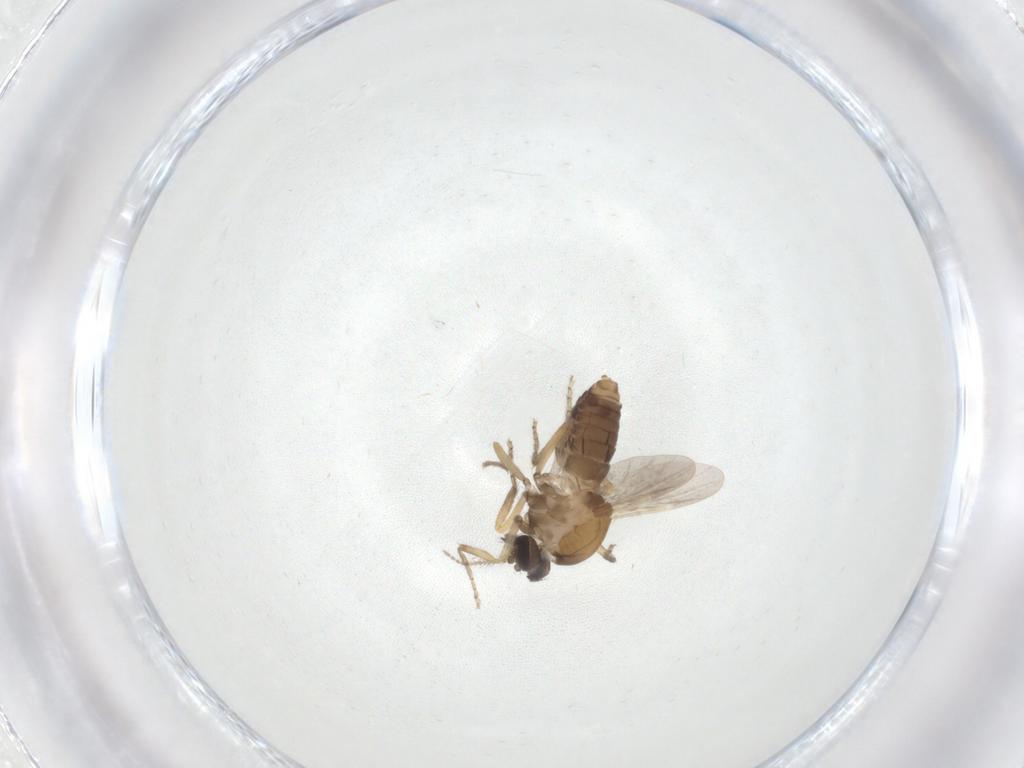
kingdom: Animalia
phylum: Arthropoda
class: Insecta
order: Diptera
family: Ceratopogonidae
